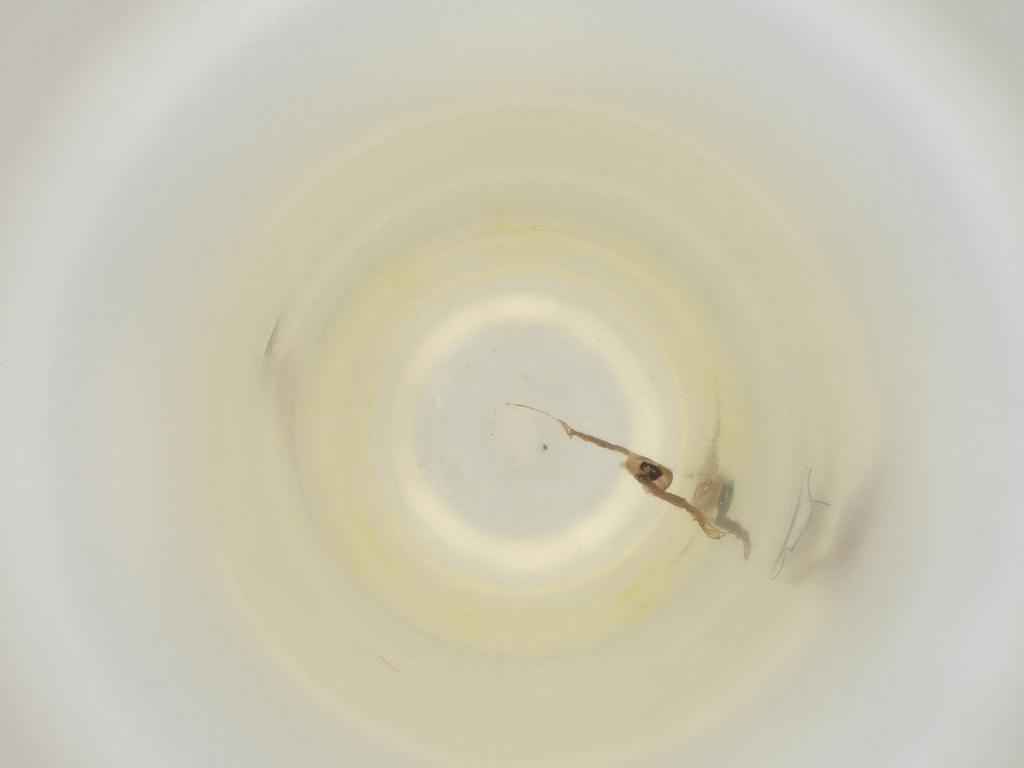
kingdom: Animalia
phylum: Arthropoda
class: Insecta
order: Diptera
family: Cecidomyiidae
